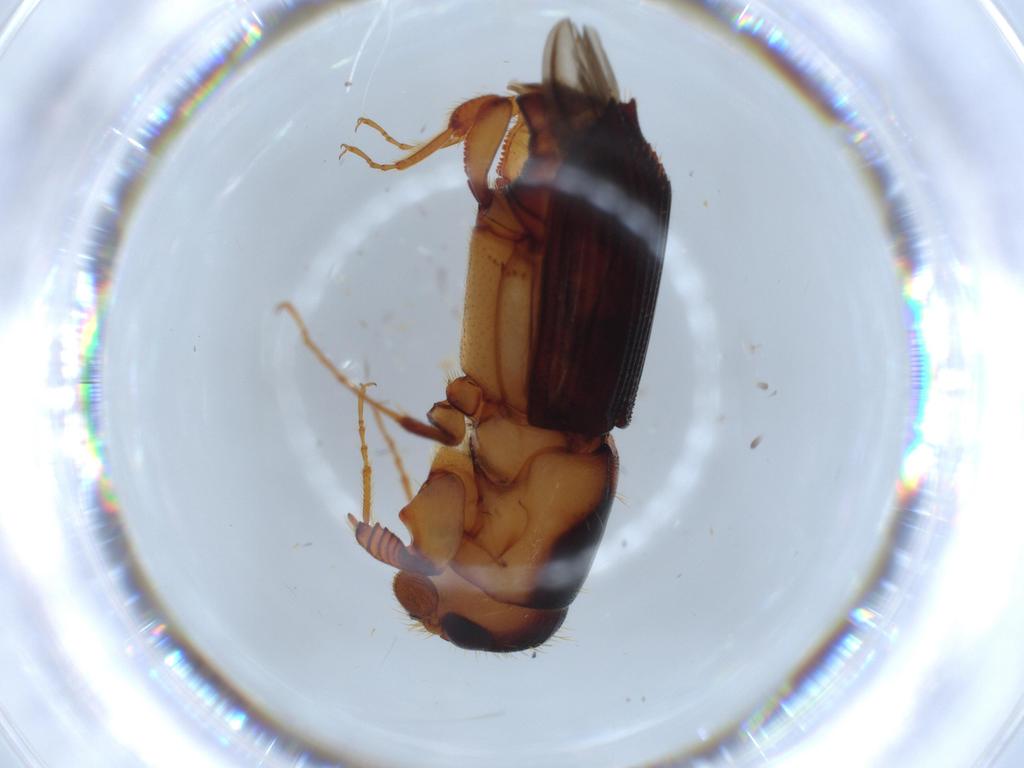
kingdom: Animalia
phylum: Arthropoda
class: Insecta
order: Coleoptera
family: Curculionidae
